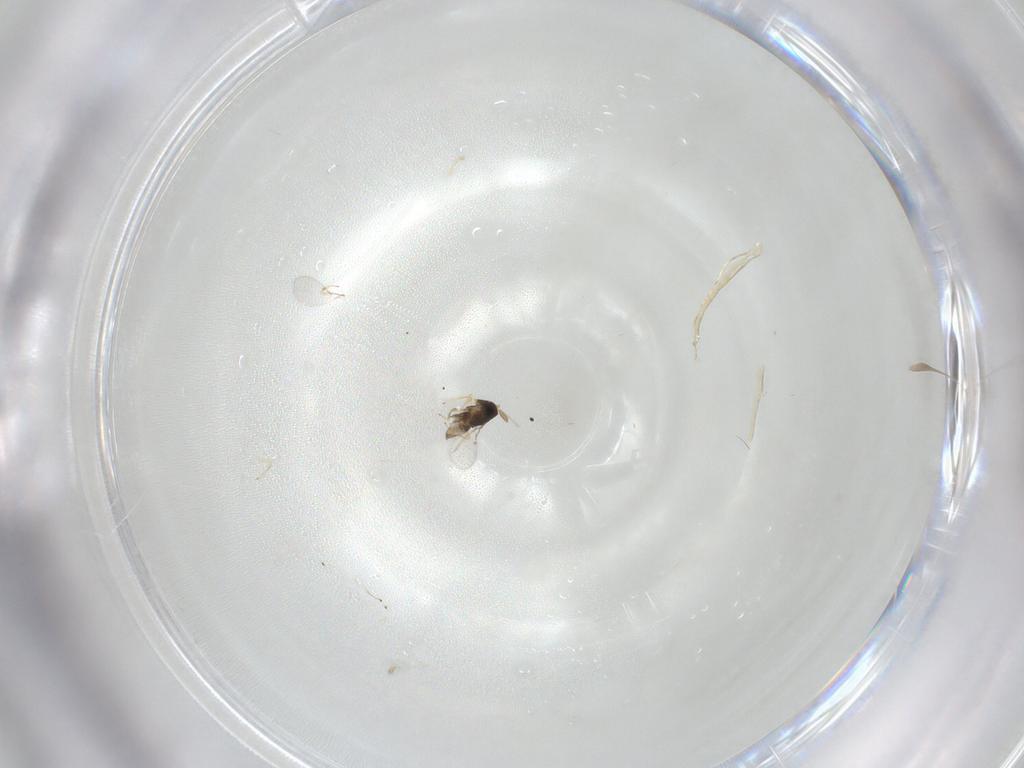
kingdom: Animalia
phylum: Arthropoda
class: Insecta
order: Hymenoptera
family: Encyrtidae
